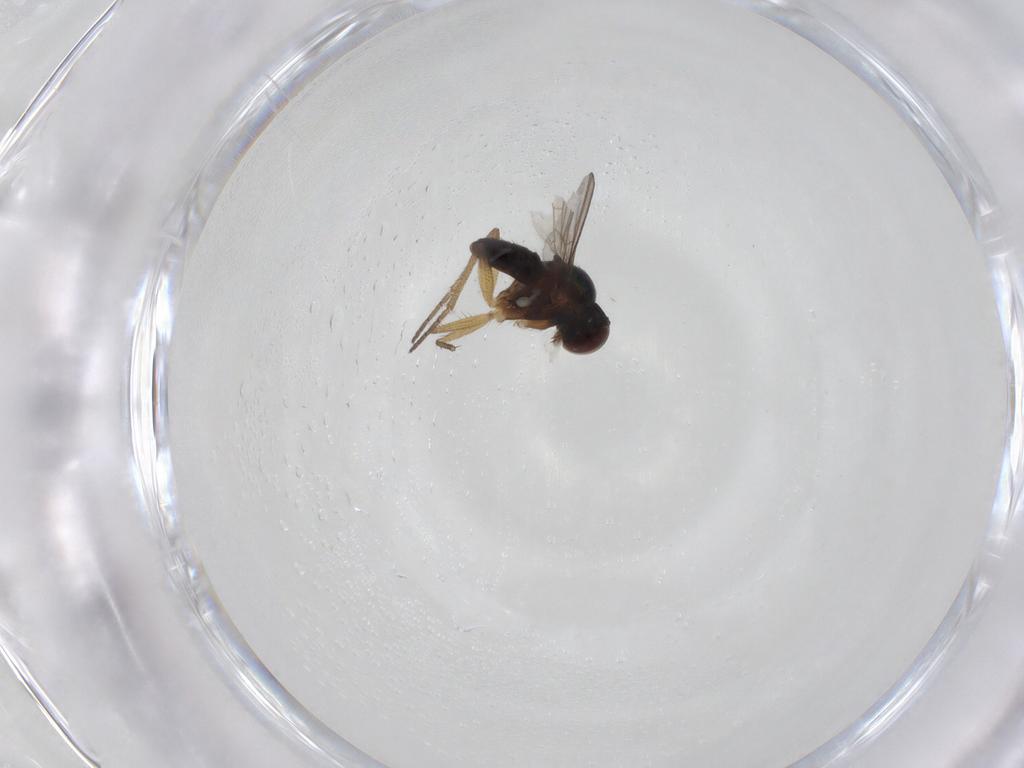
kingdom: Animalia
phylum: Arthropoda
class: Insecta
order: Diptera
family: Dolichopodidae
